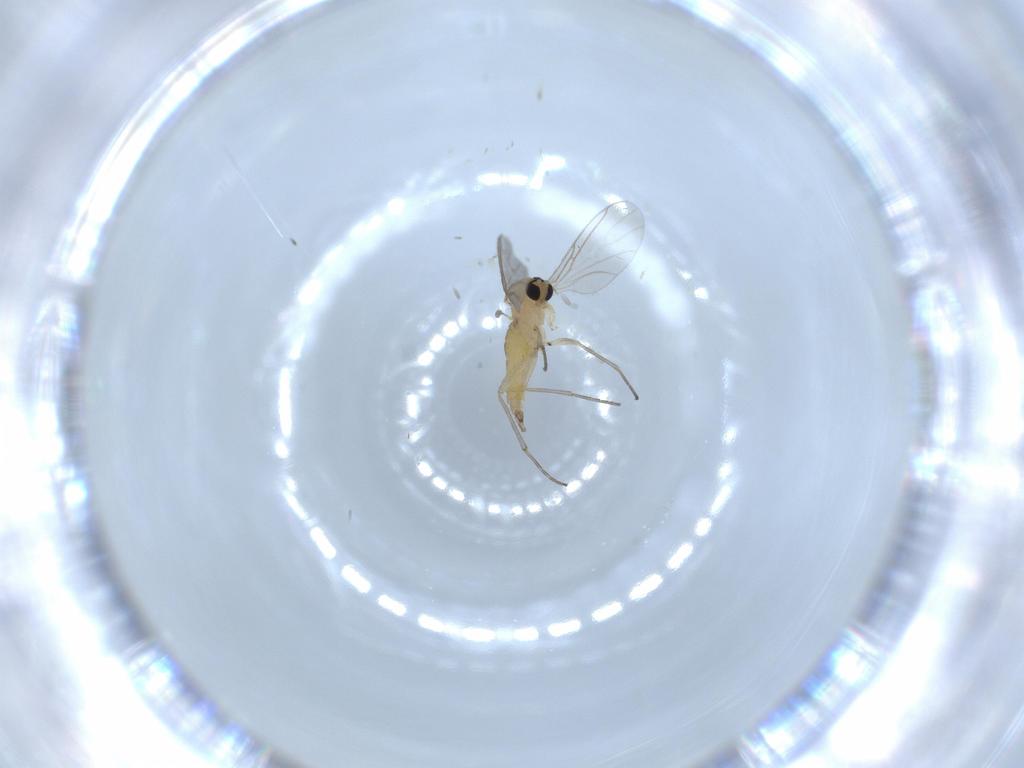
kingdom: Animalia
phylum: Arthropoda
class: Insecta
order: Diptera
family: Sciaridae
